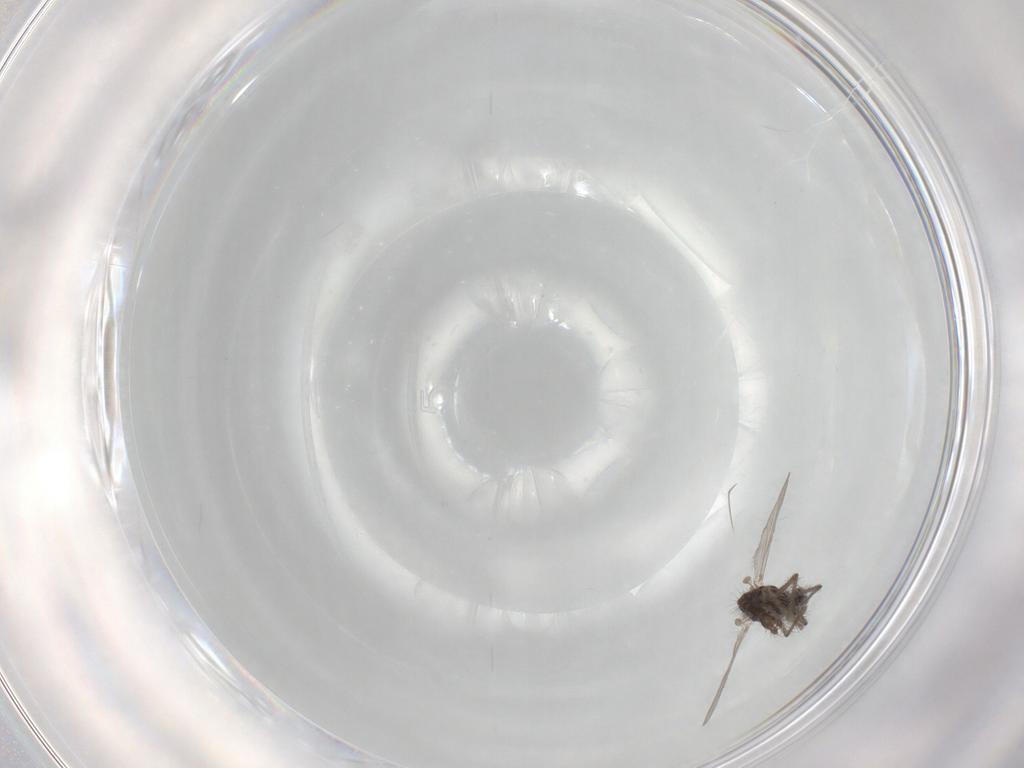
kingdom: Animalia
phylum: Arthropoda
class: Insecta
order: Diptera
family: Chironomidae
